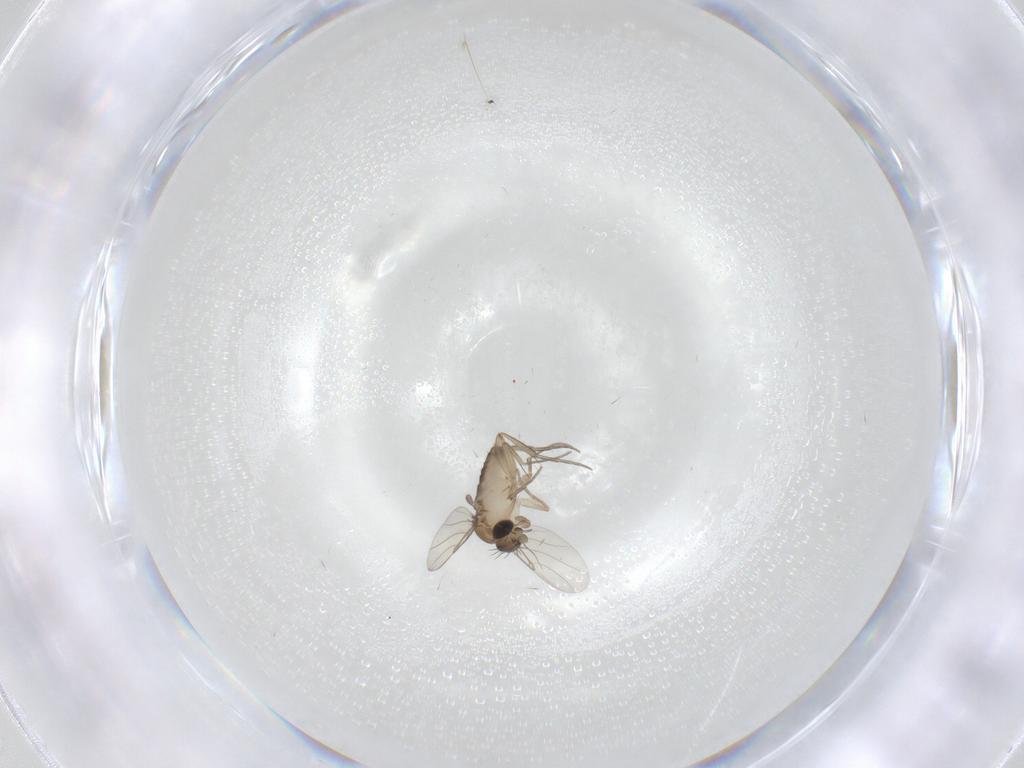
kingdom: Animalia
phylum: Arthropoda
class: Insecta
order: Diptera
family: Phoridae
